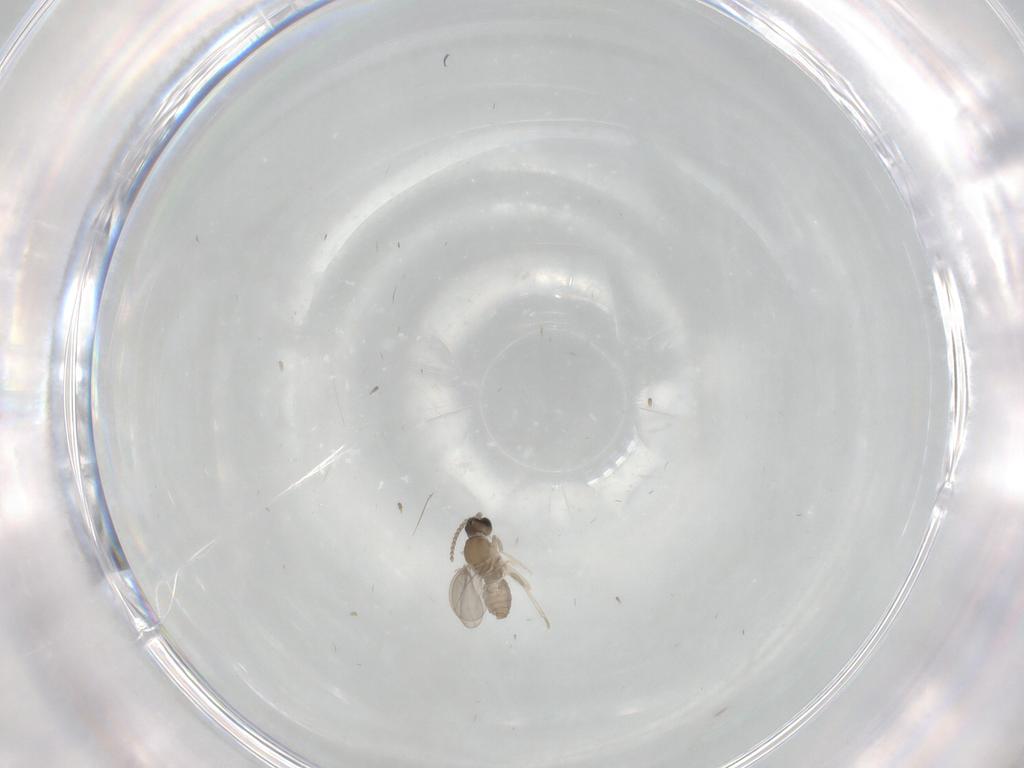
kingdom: Animalia
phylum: Arthropoda
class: Insecta
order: Diptera
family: Cecidomyiidae
